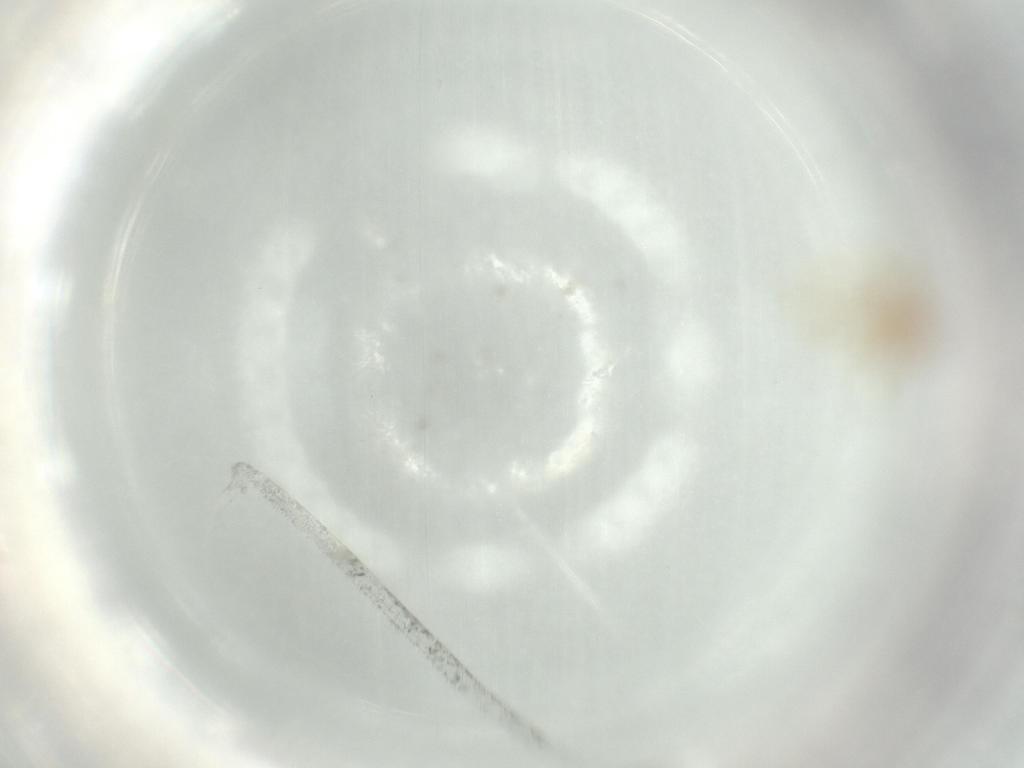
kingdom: Animalia
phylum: Arthropoda
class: Insecta
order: Hemiptera
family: Tropiduchidae
